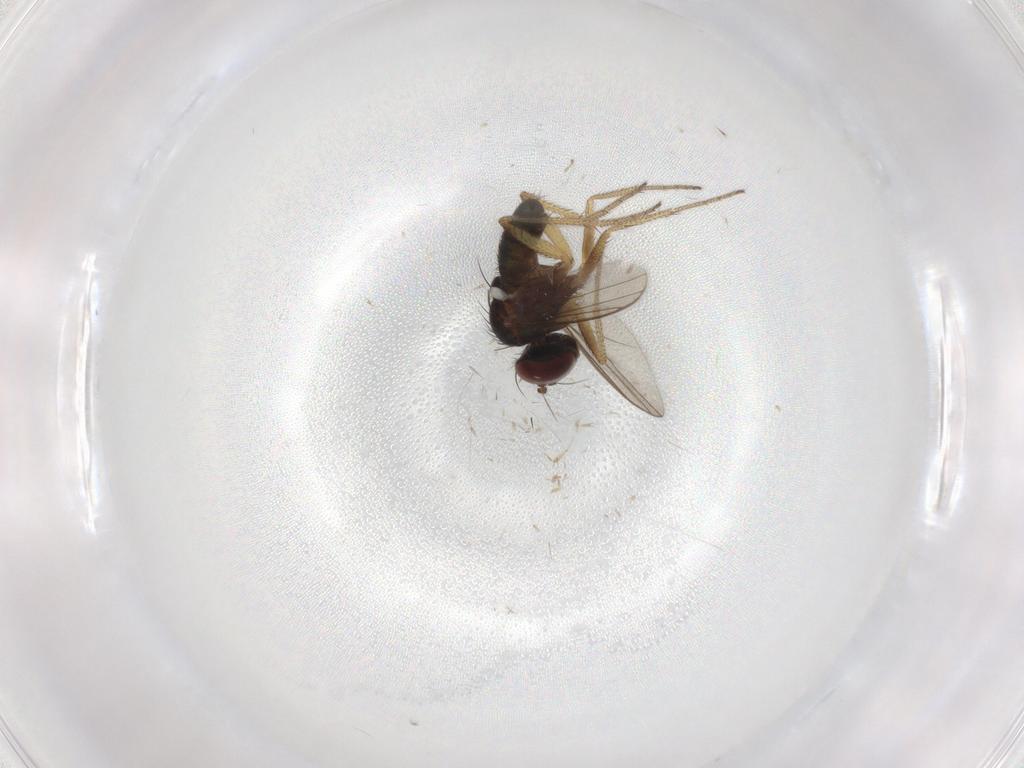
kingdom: Animalia
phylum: Arthropoda
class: Insecta
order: Diptera
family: Dolichopodidae
